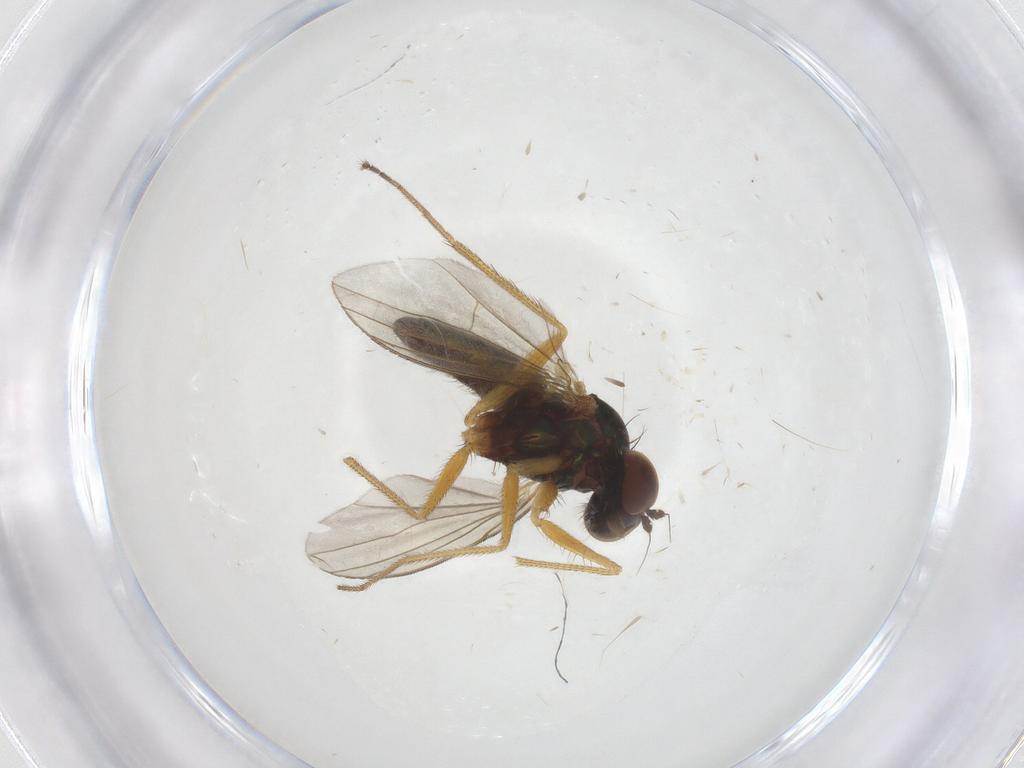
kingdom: Animalia
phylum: Arthropoda
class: Insecta
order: Diptera
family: Dolichopodidae
